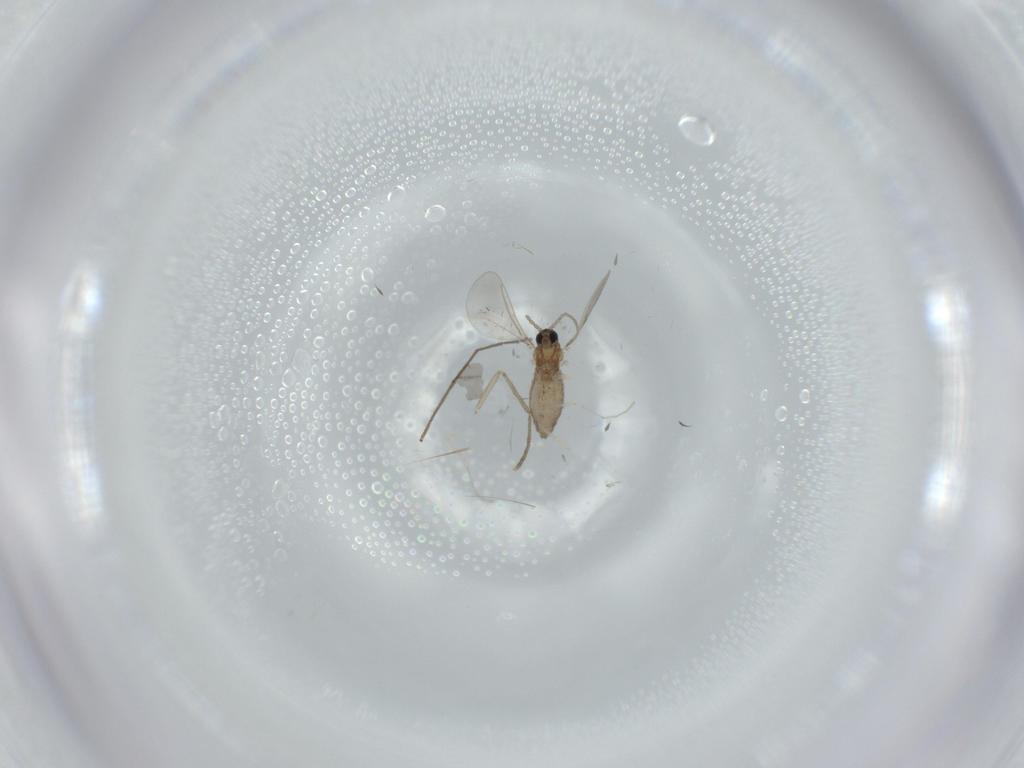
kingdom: Animalia
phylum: Arthropoda
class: Insecta
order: Diptera
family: Cecidomyiidae
